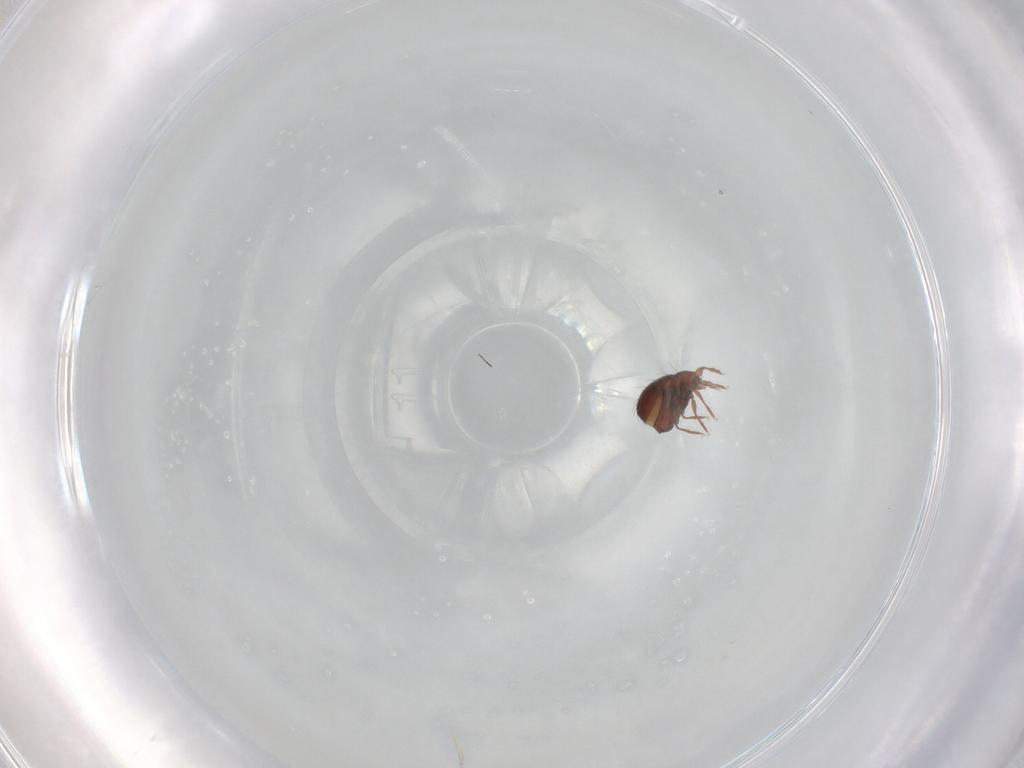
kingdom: Animalia
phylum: Arthropoda
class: Arachnida
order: Sarcoptiformes
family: Oribatulidae
